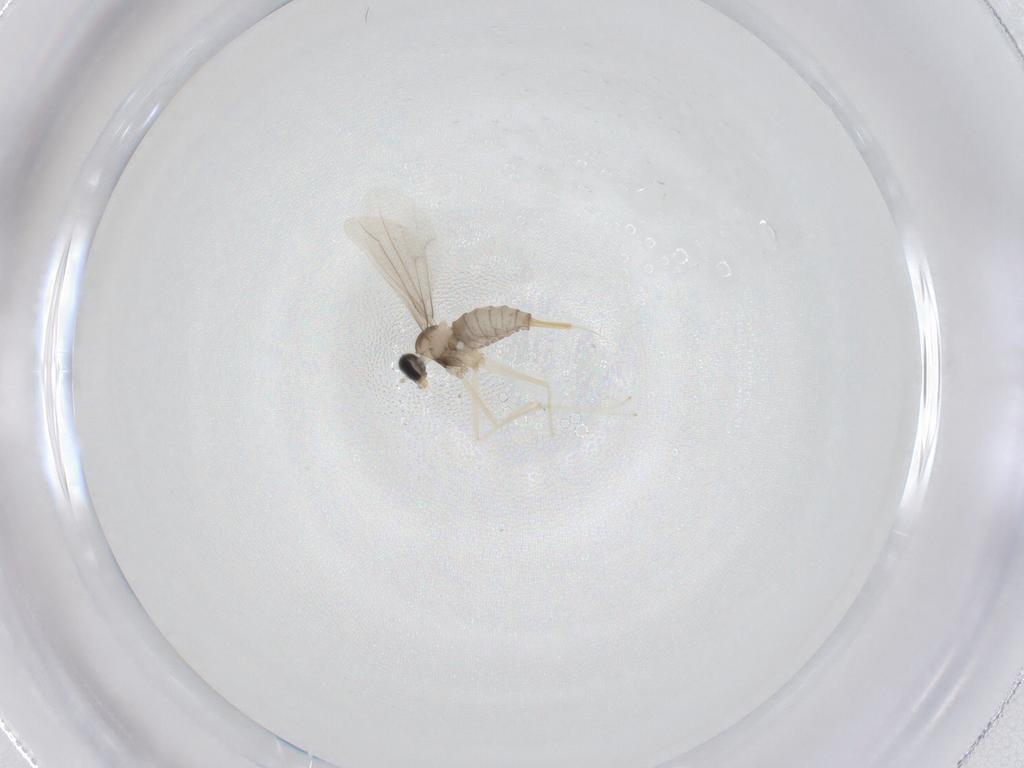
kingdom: Animalia
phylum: Arthropoda
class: Insecta
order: Diptera
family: Cecidomyiidae
